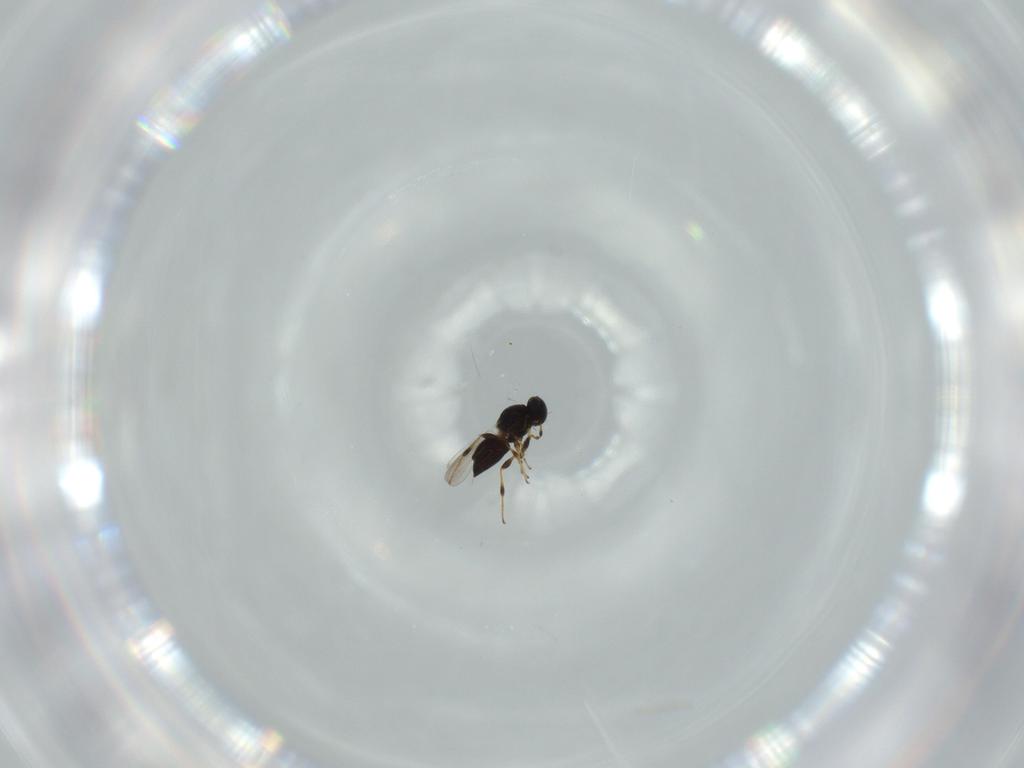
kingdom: Animalia
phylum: Arthropoda
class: Insecta
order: Hymenoptera
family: Platygastridae
